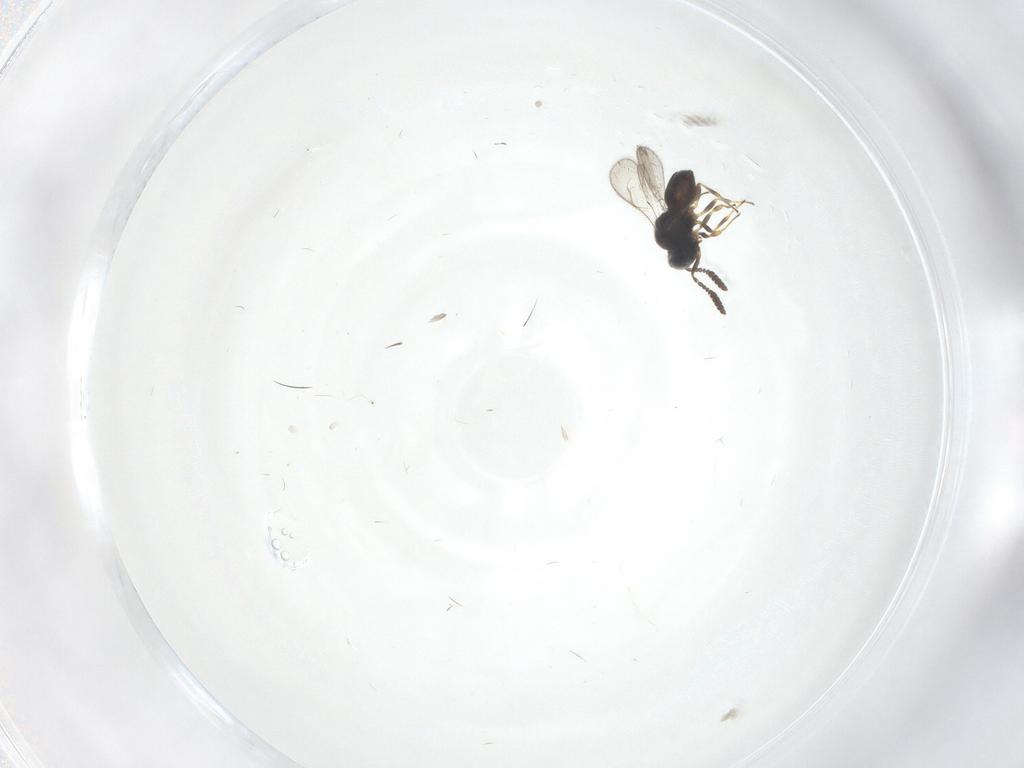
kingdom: Animalia
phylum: Arthropoda
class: Insecta
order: Hymenoptera
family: Scelionidae
